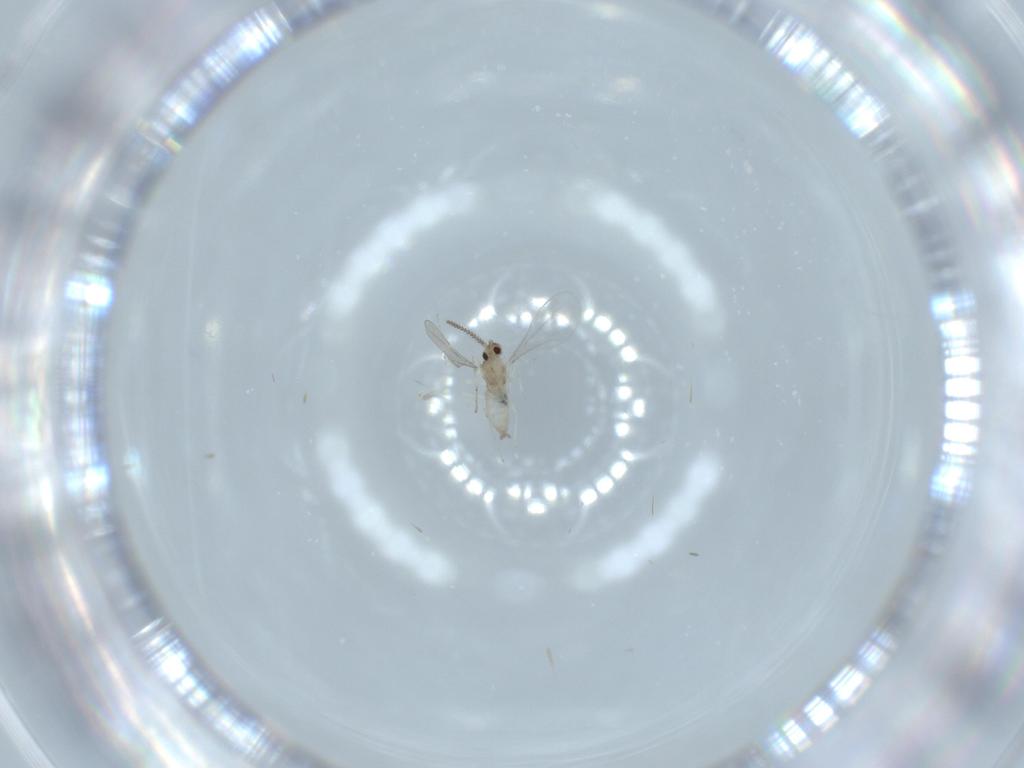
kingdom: Animalia
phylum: Arthropoda
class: Insecta
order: Diptera
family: Cecidomyiidae
